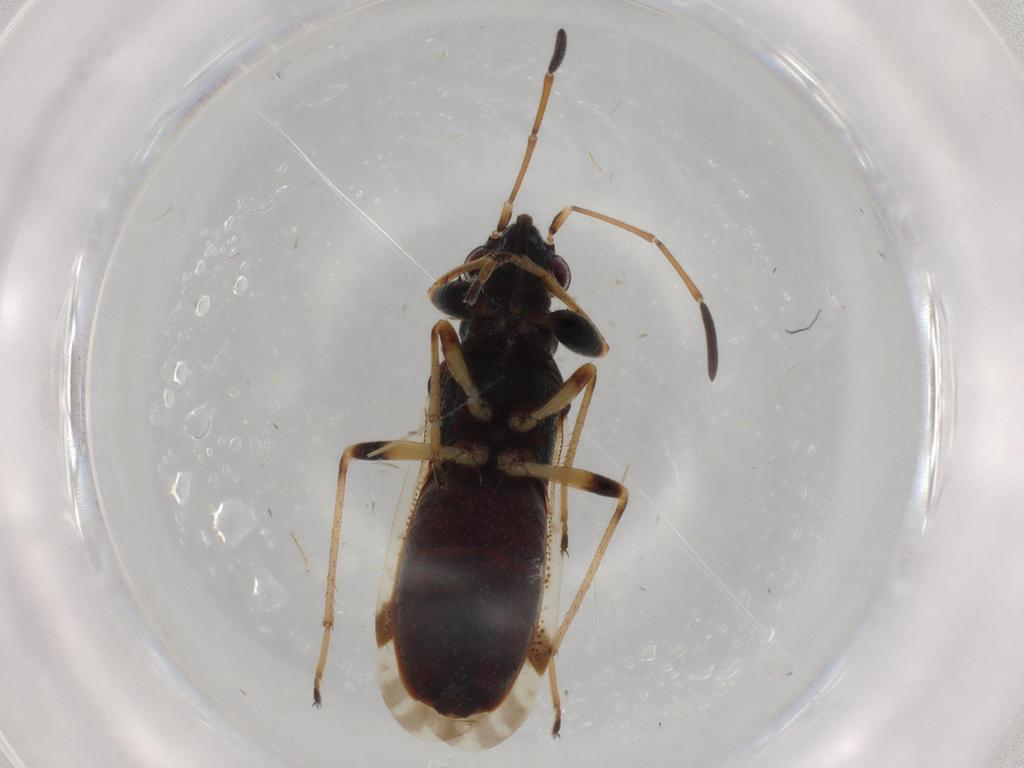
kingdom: Animalia
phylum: Arthropoda
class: Insecta
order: Hemiptera
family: Rhyparochromidae
